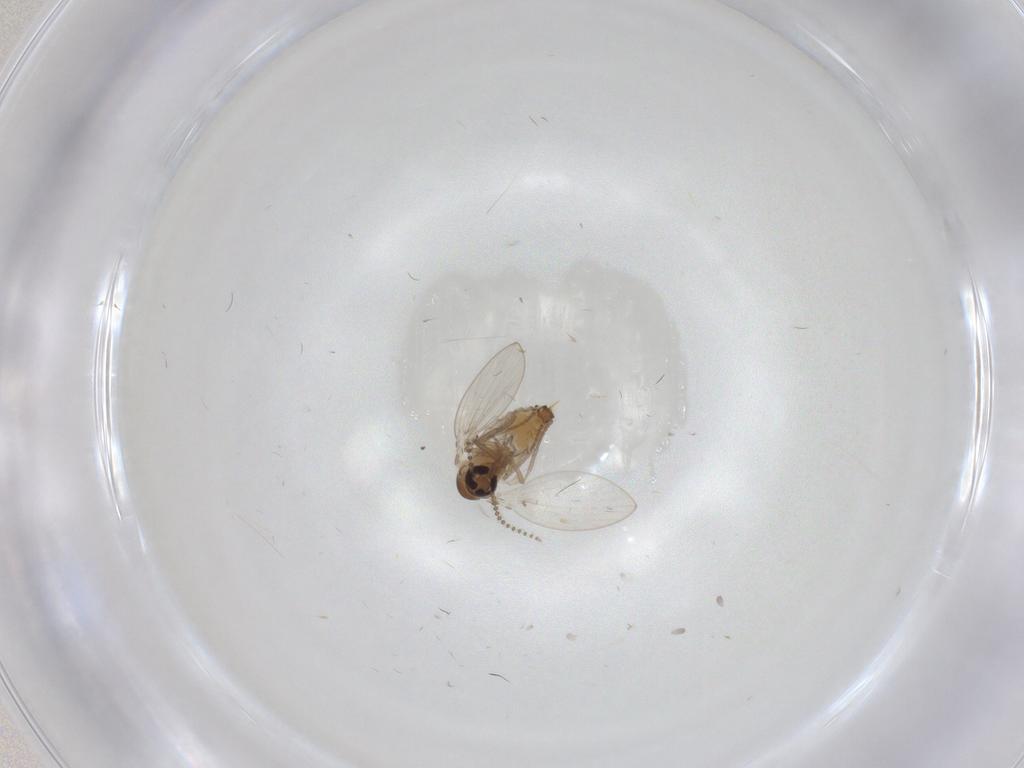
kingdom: Animalia
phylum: Arthropoda
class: Insecta
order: Diptera
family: Psychodidae
